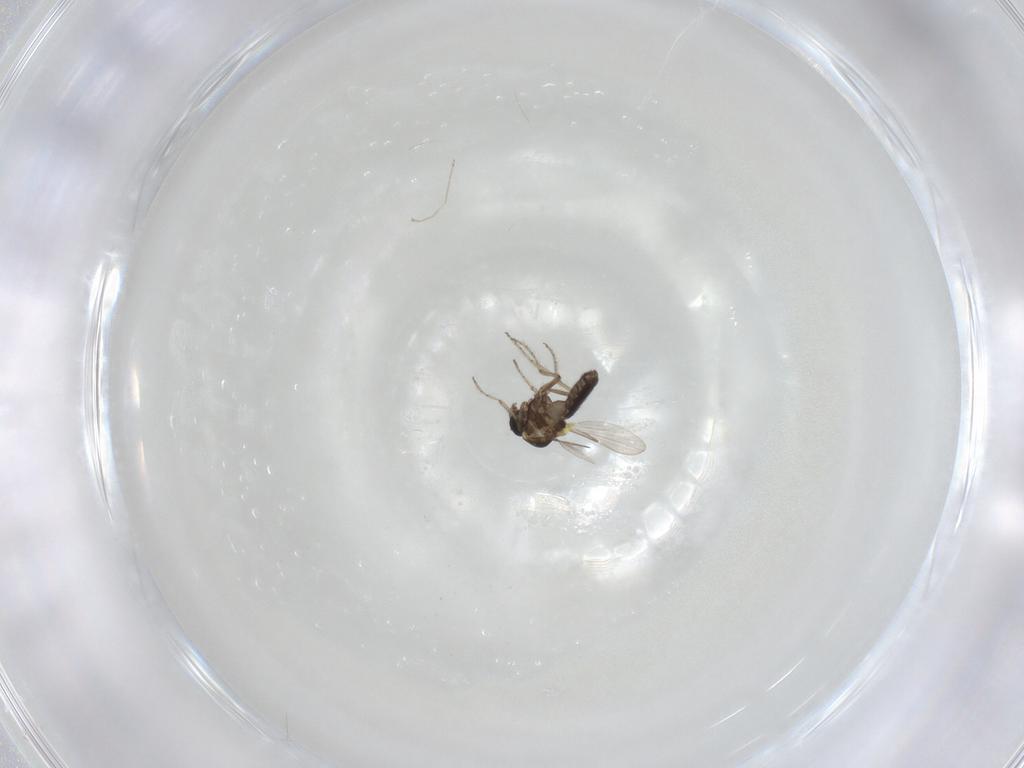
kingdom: Animalia
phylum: Arthropoda
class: Insecta
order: Diptera
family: Ceratopogonidae
